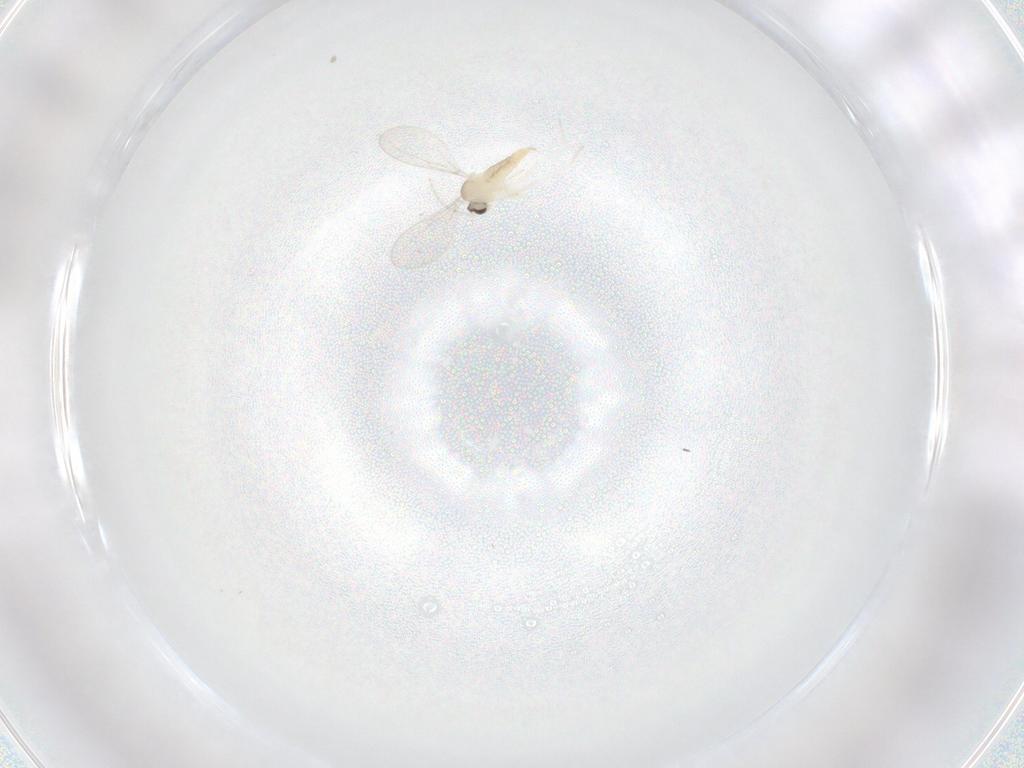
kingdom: Animalia
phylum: Arthropoda
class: Insecta
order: Diptera
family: Cecidomyiidae
